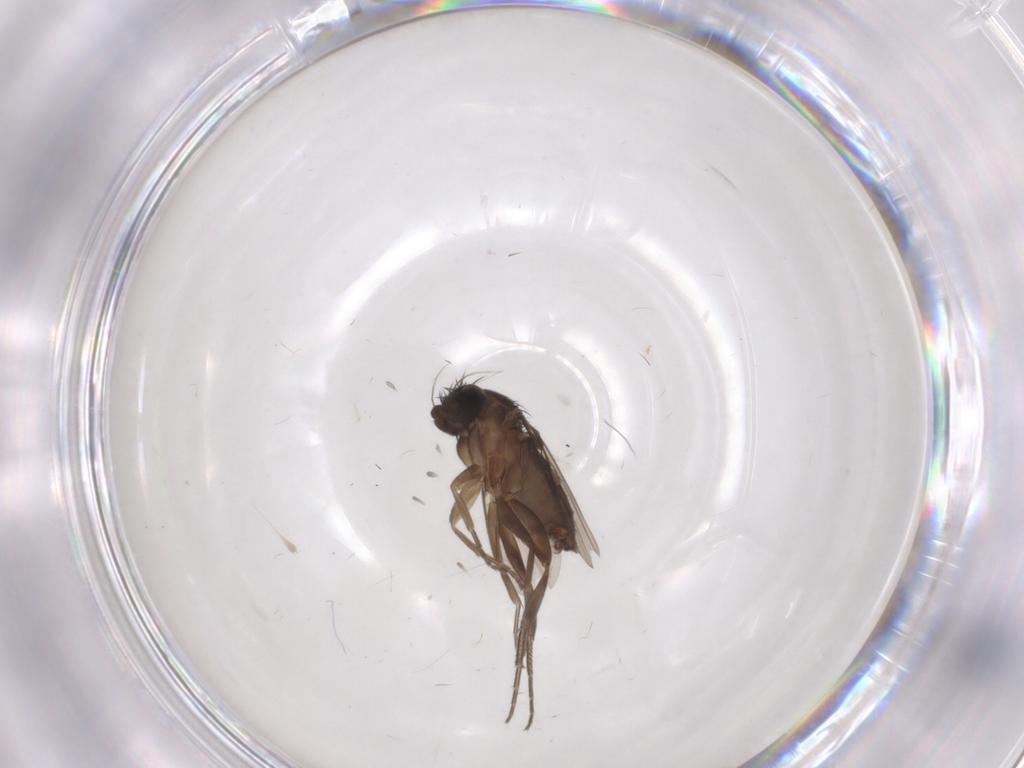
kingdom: Animalia
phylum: Arthropoda
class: Insecta
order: Diptera
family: Phoridae
